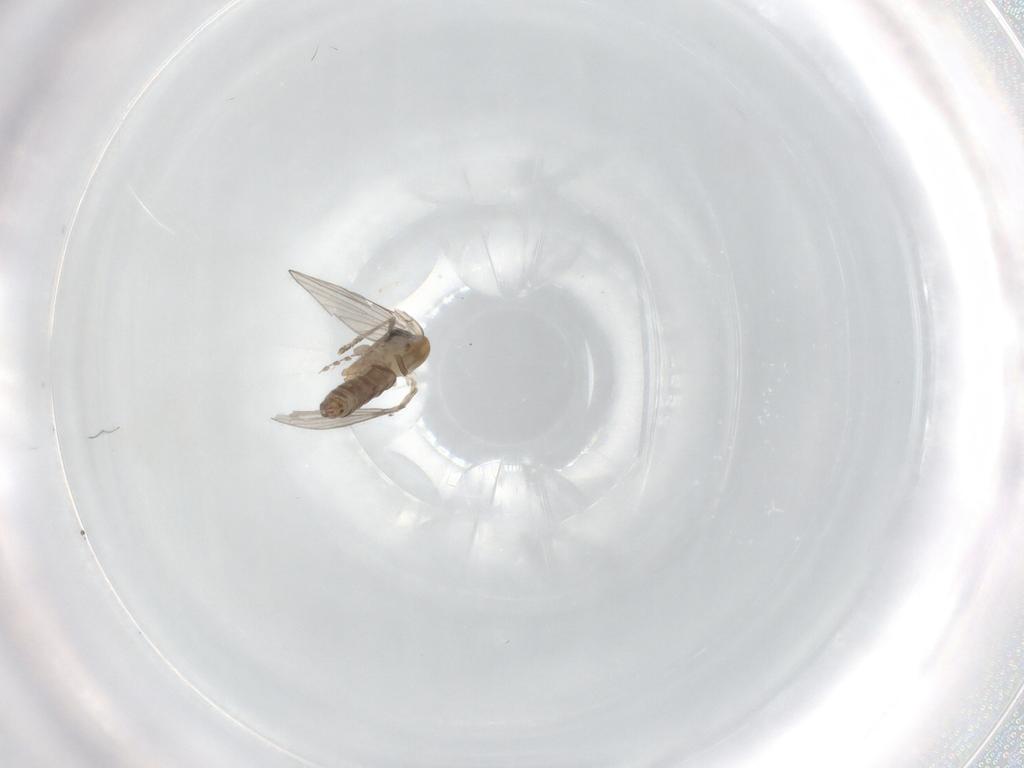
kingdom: Animalia
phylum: Arthropoda
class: Insecta
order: Diptera
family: Psychodidae
